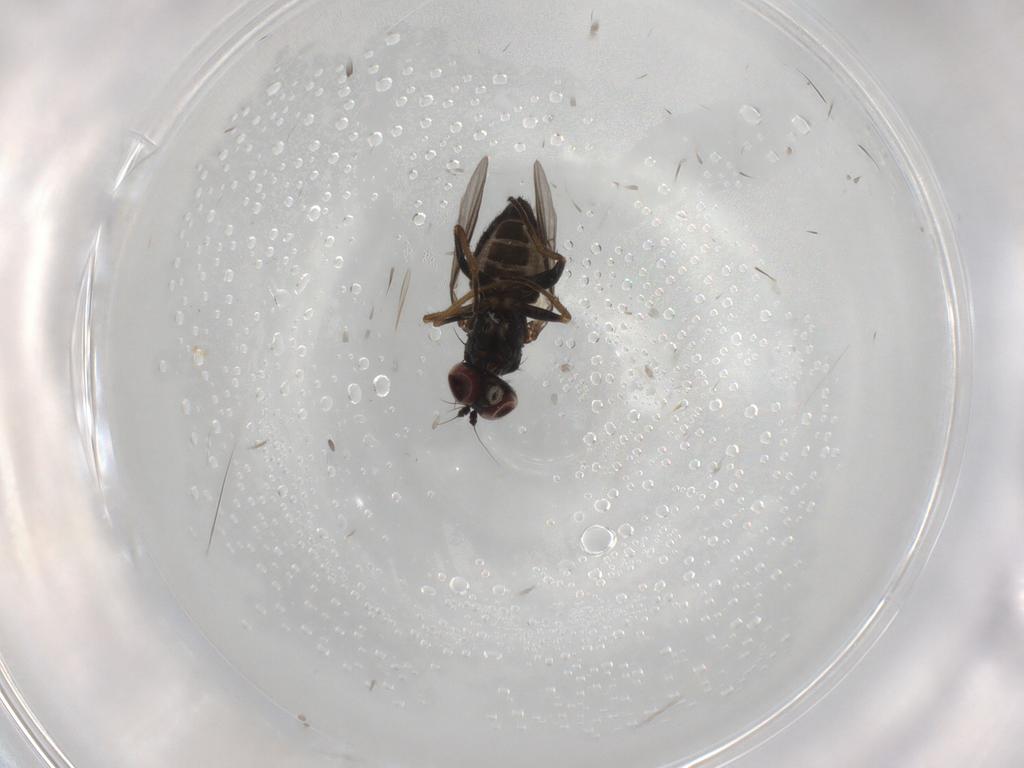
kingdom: Animalia
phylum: Arthropoda
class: Insecta
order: Diptera
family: Dolichopodidae
